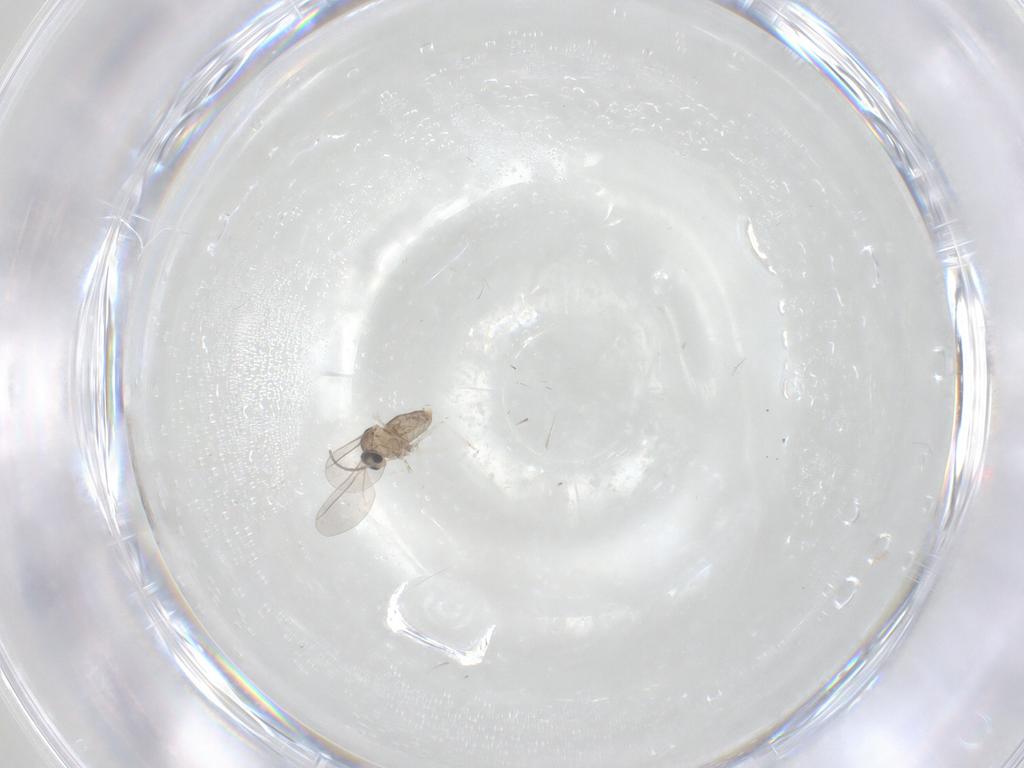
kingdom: Animalia
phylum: Arthropoda
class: Insecta
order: Diptera
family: Cecidomyiidae
